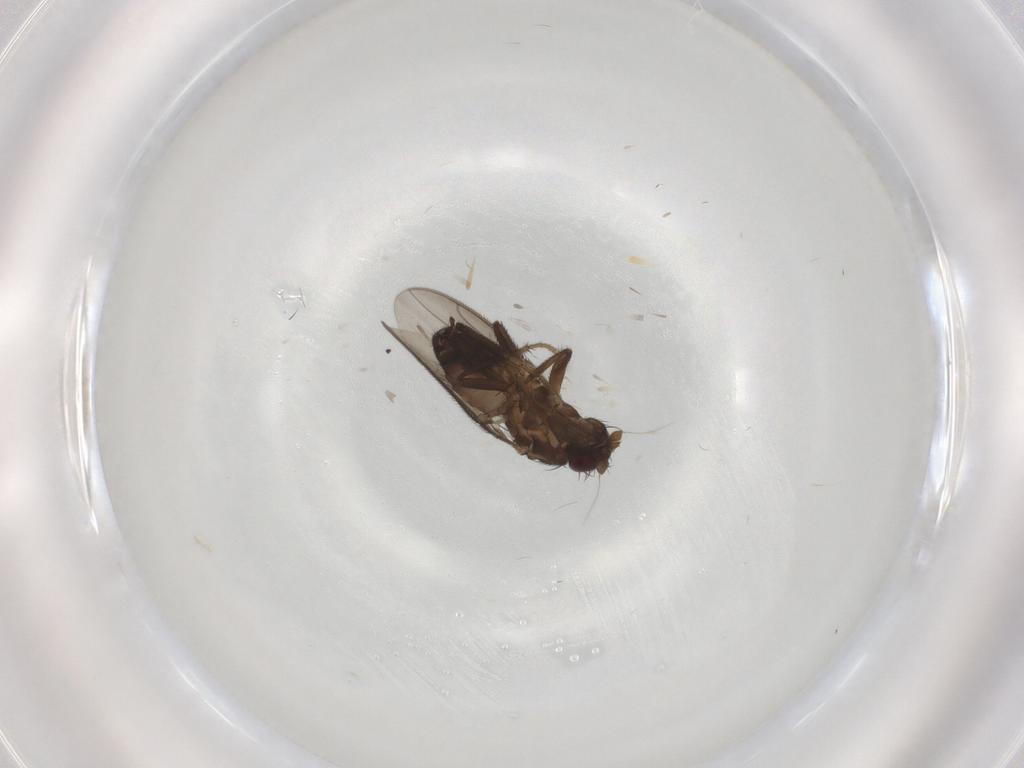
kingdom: Animalia
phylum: Arthropoda
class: Insecta
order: Diptera
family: Sphaeroceridae
